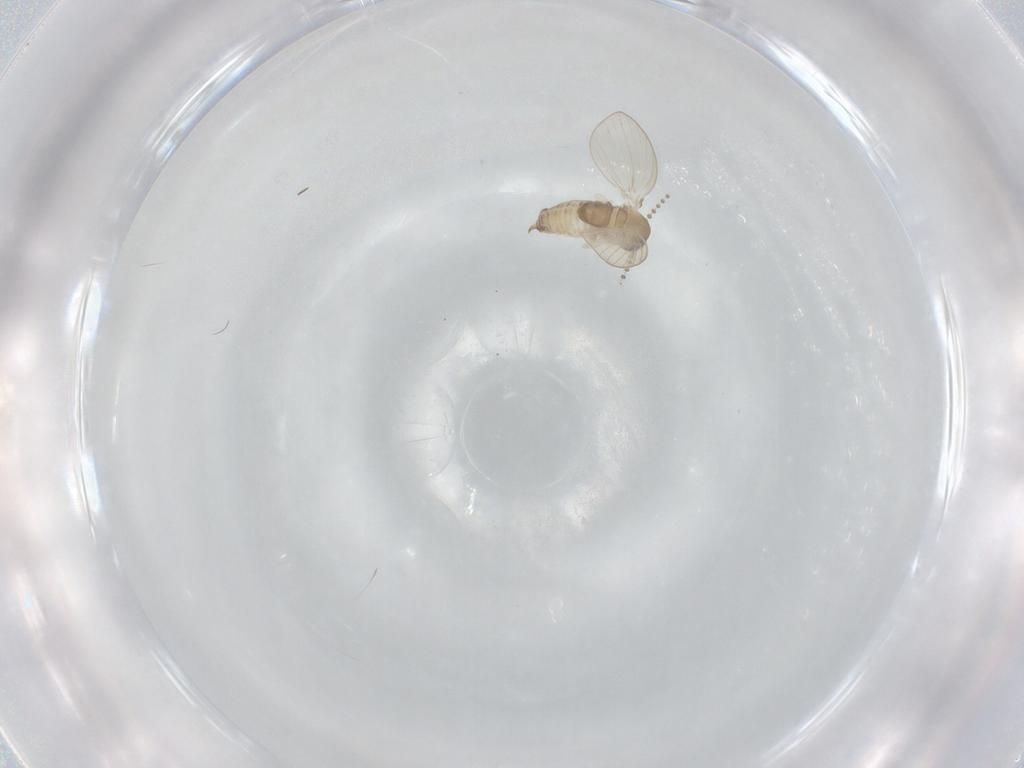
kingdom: Animalia
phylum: Arthropoda
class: Insecta
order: Diptera
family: Psychodidae
